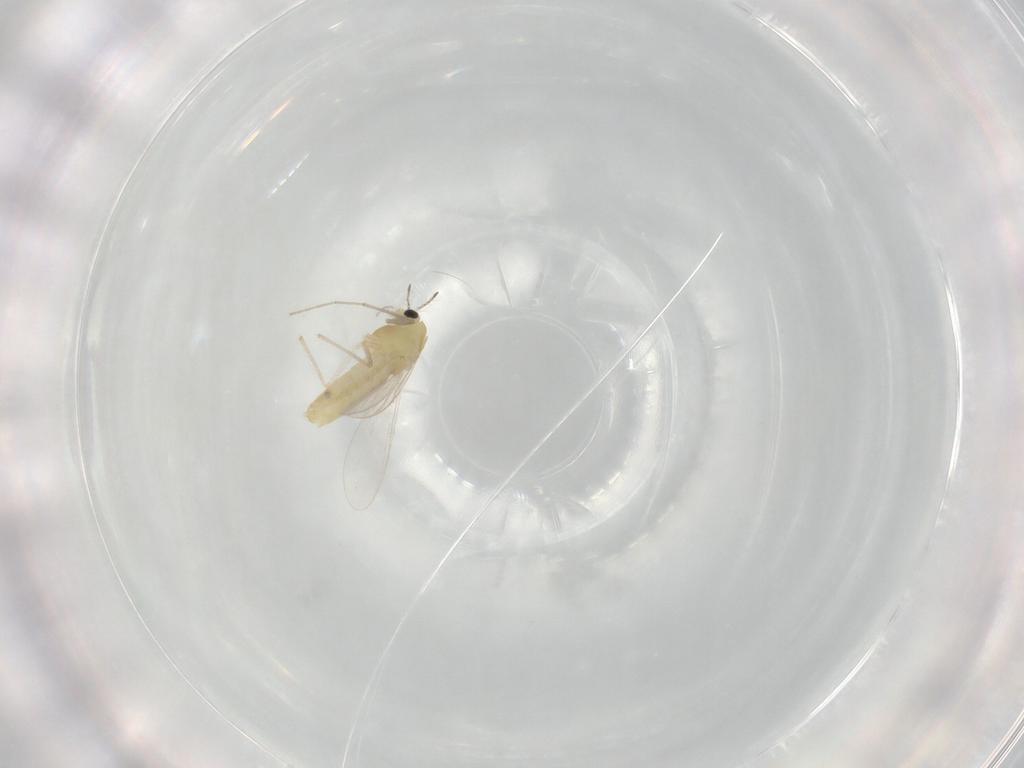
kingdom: Animalia
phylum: Arthropoda
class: Insecta
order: Diptera
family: Chironomidae
